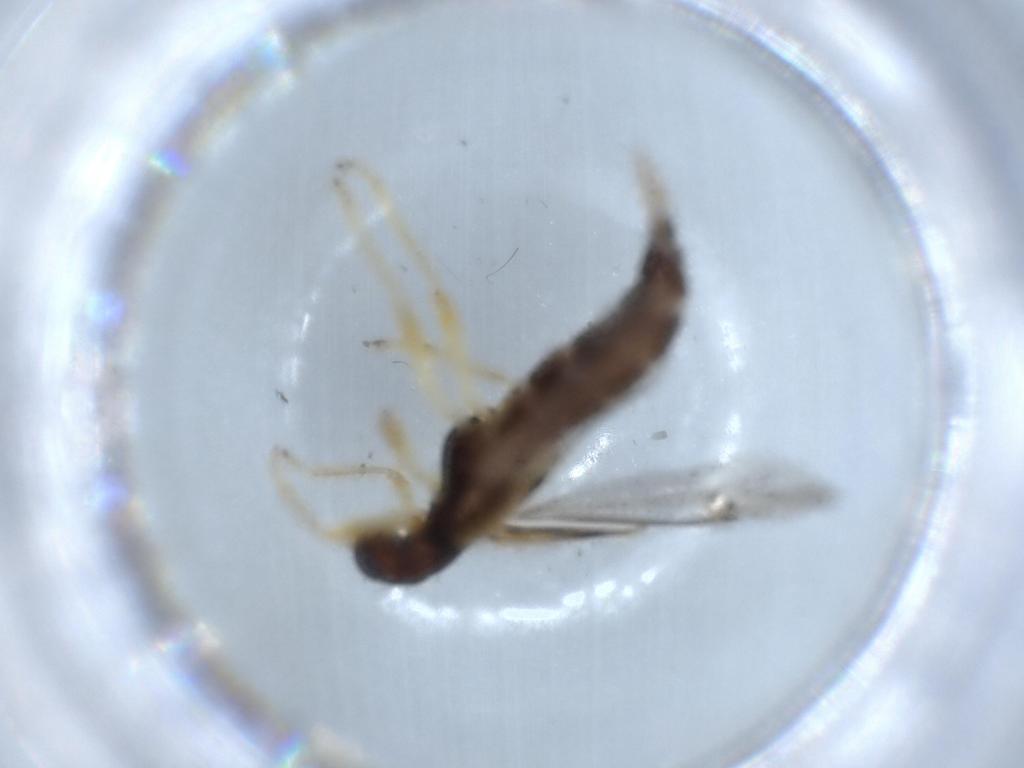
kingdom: Animalia
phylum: Arthropoda
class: Insecta
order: Coleoptera
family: Cleridae
